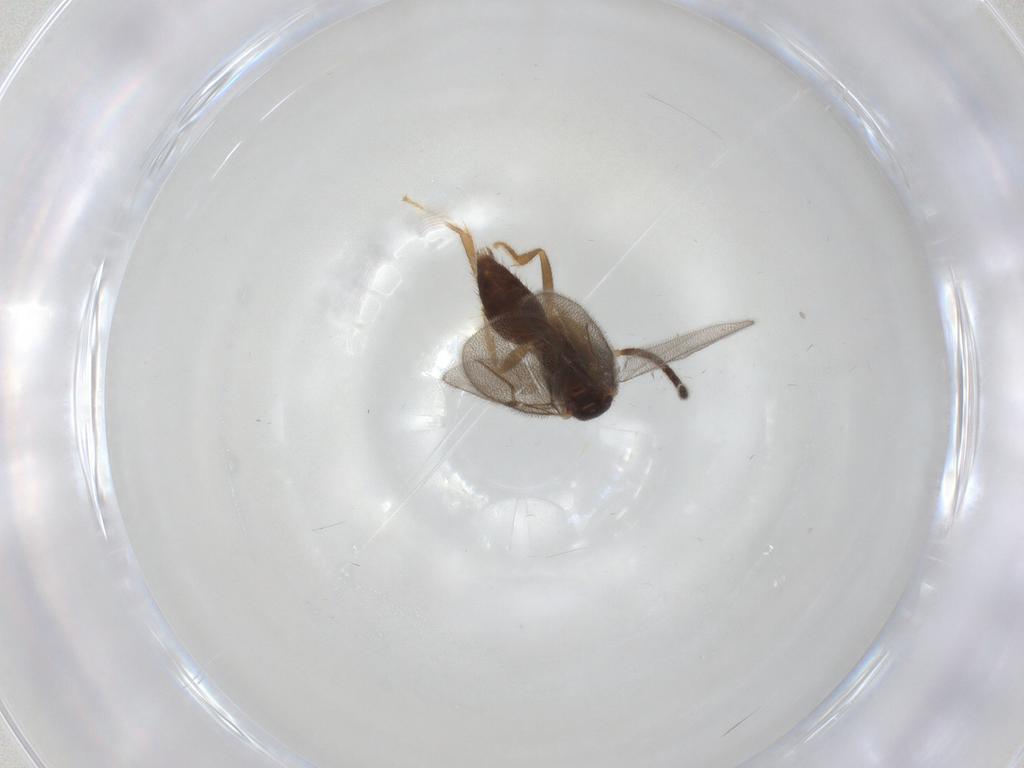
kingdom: Animalia
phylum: Arthropoda
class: Insecta
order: Hymenoptera
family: Bethylidae
